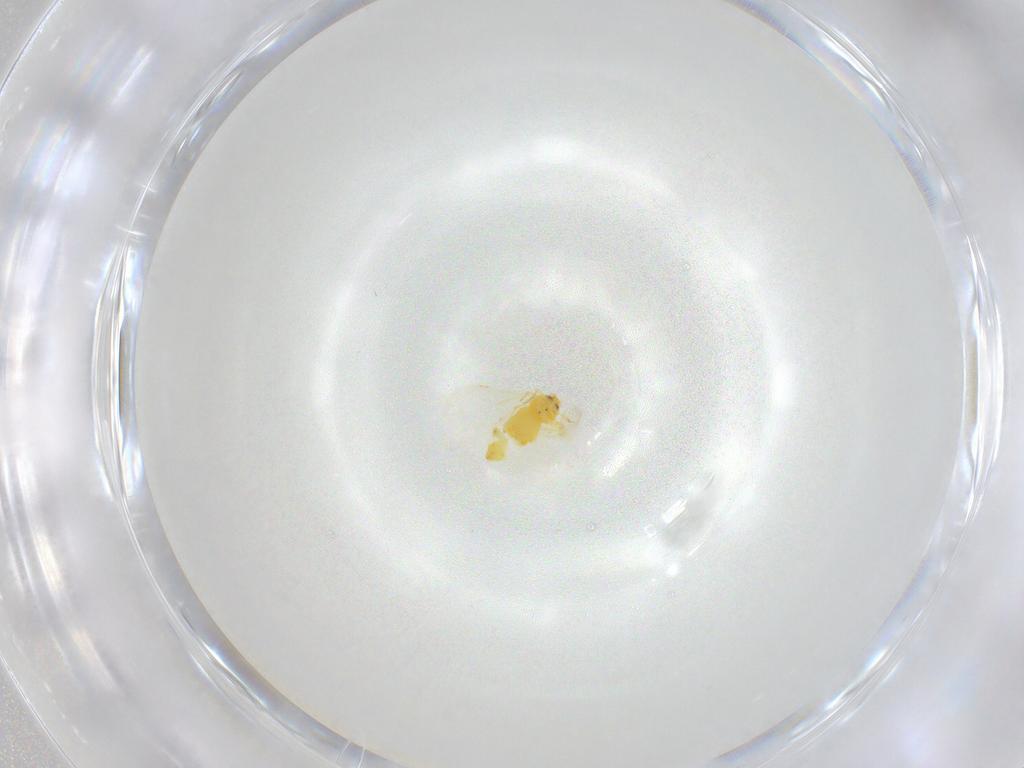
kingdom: Animalia
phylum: Arthropoda
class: Insecta
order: Hemiptera
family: Aleyrodidae
